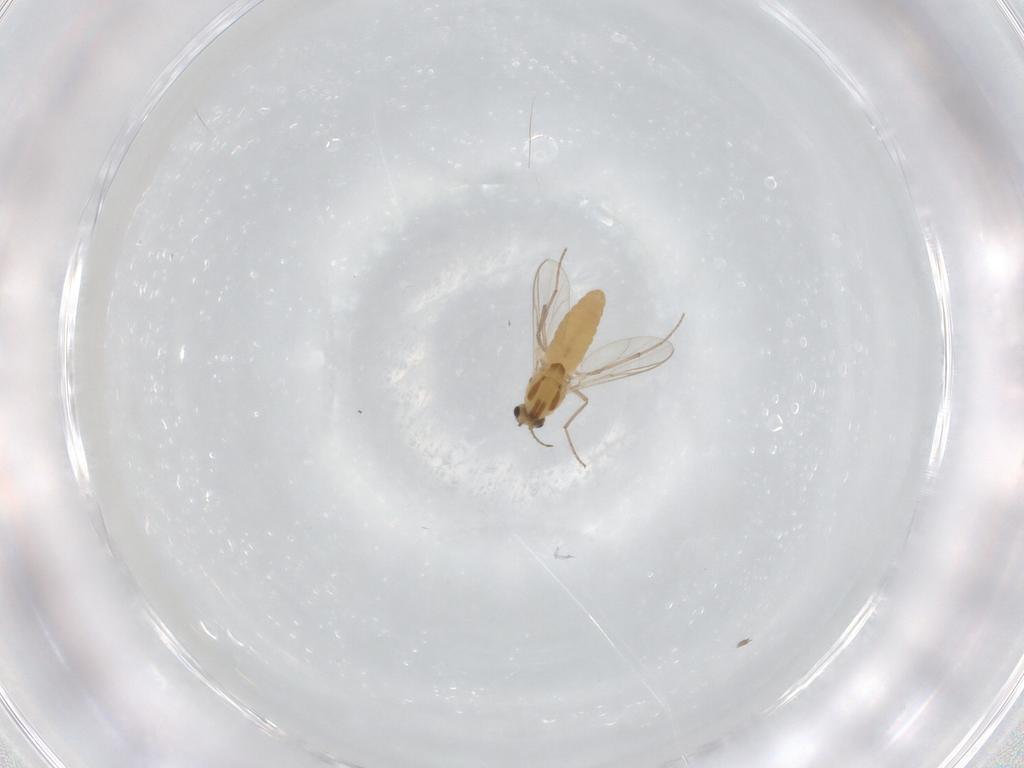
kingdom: Animalia
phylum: Arthropoda
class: Insecta
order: Diptera
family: Chironomidae
